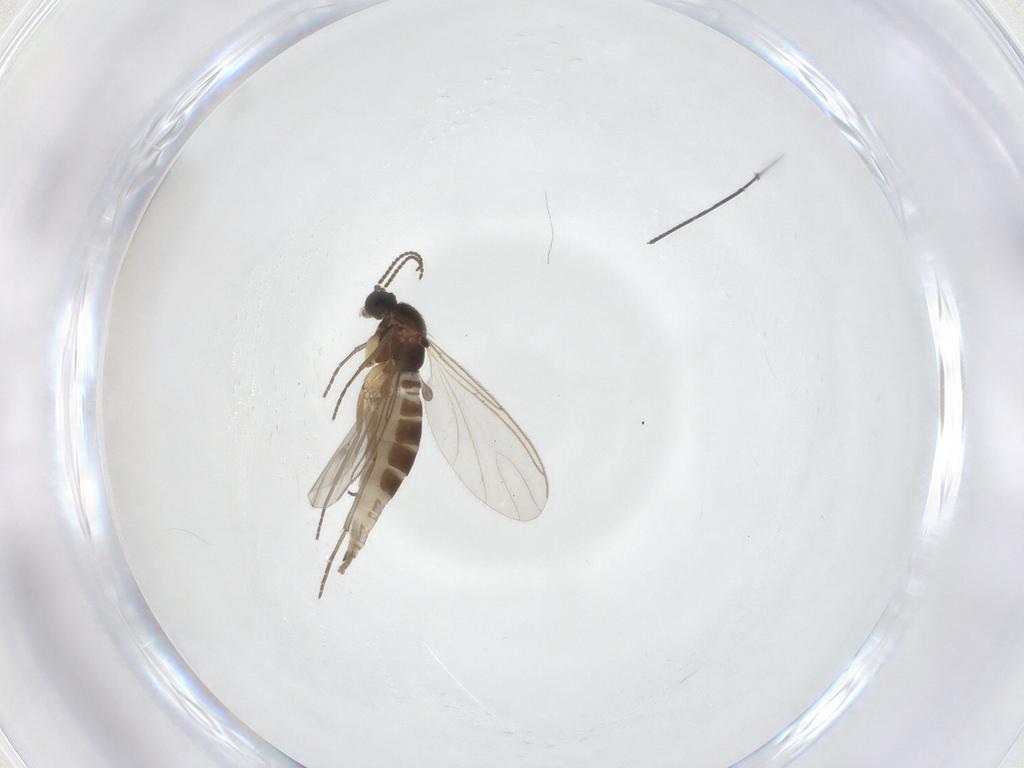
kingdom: Animalia
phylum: Arthropoda
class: Insecta
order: Diptera
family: Sciaridae
